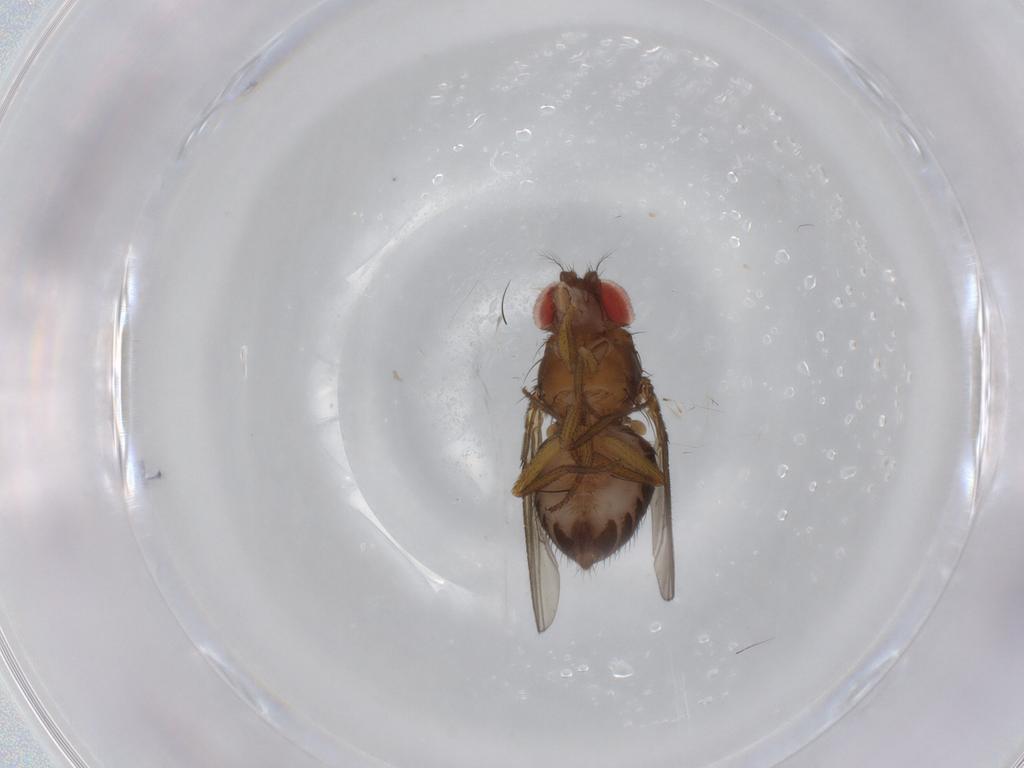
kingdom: Animalia
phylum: Arthropoda
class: Insecta
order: Diptera
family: Drosophilidae
